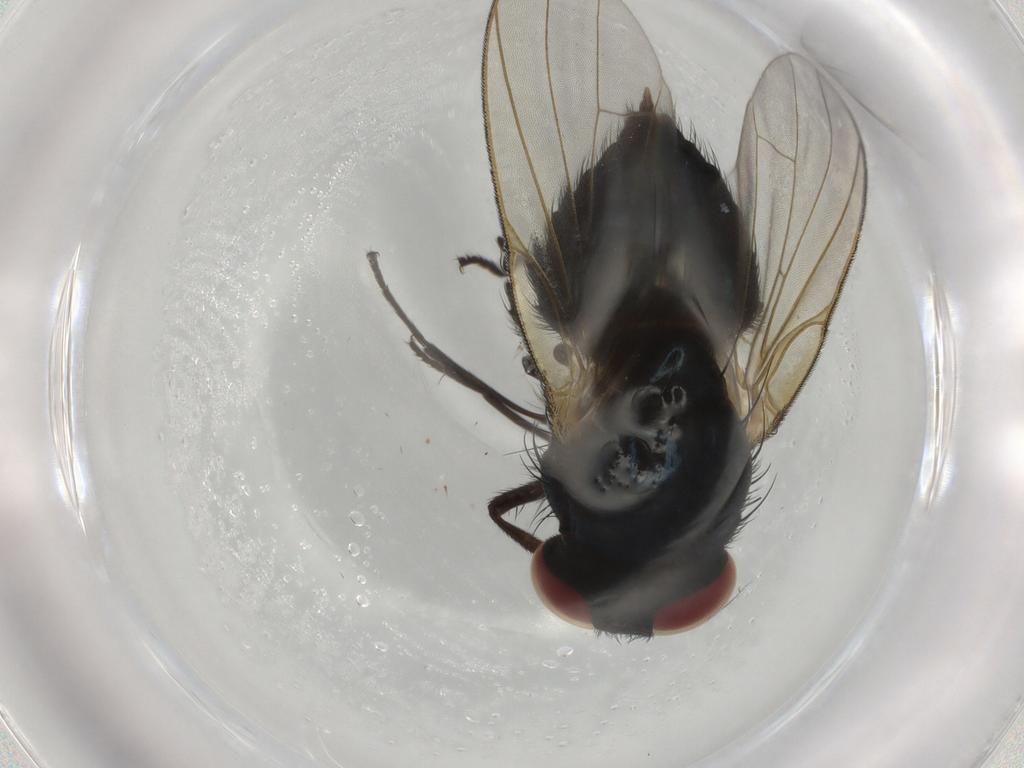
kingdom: Animalia
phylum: Arthropoda
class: Insecta
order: Diptera
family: Lonchaeidae
